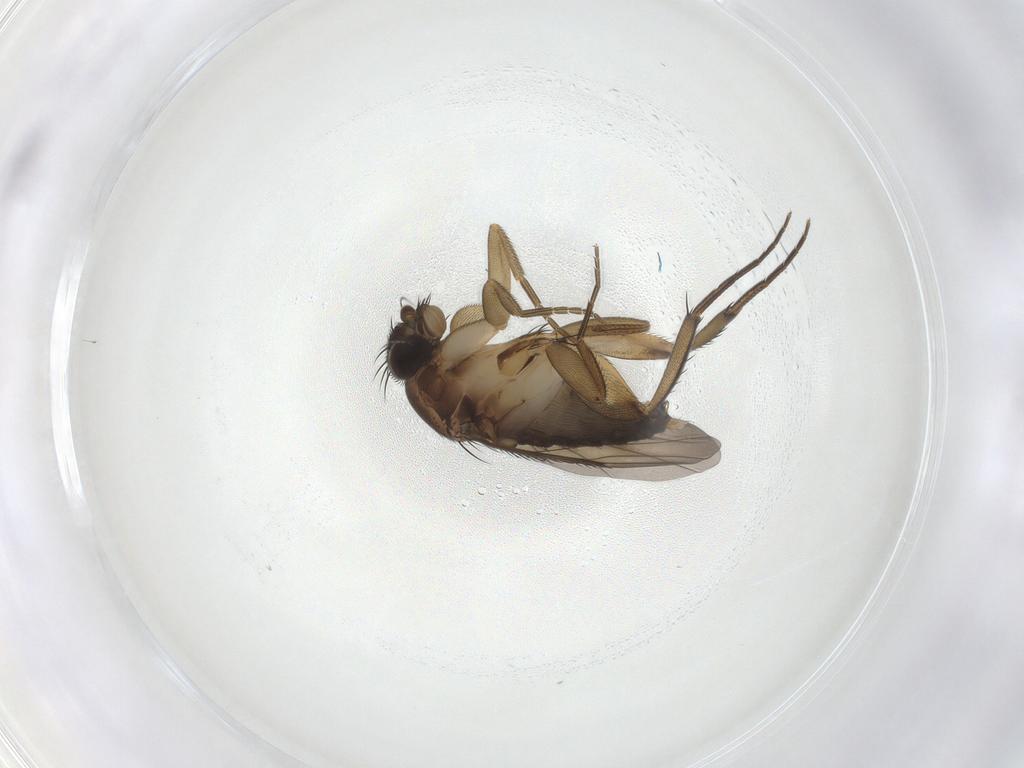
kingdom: Animalia
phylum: Arthropoda
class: Insecta
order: Diptera
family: Phoridae
